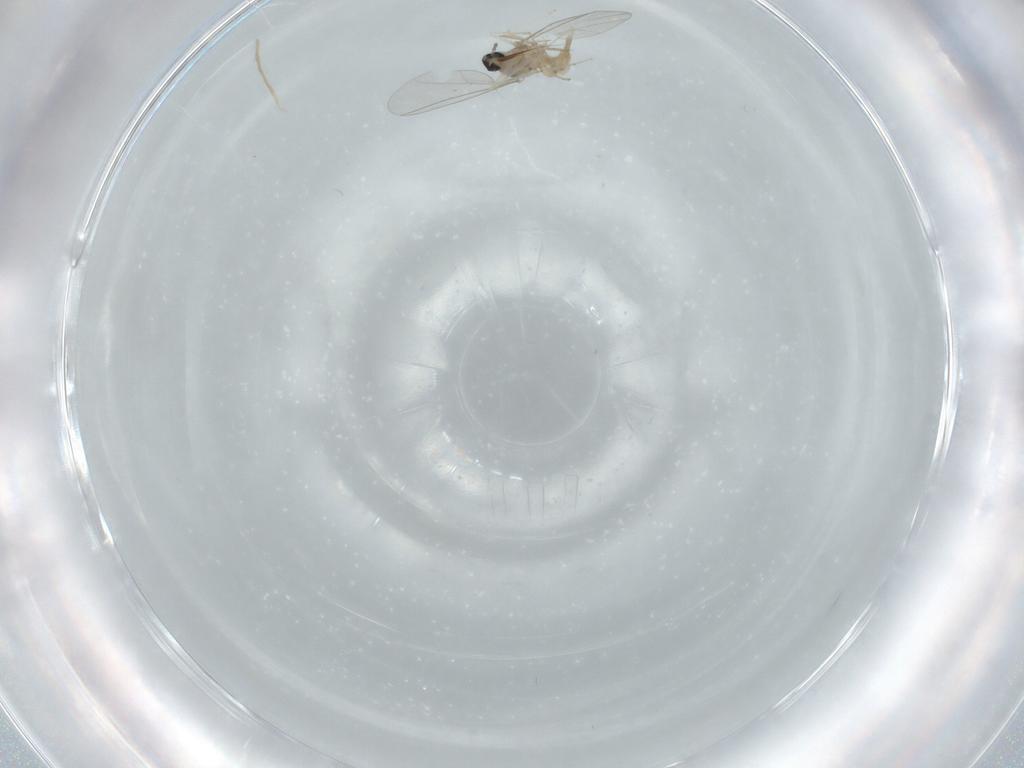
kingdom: Animalia
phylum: Arthropoda
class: Insecta
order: Diptera
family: Cecidomyiidae
